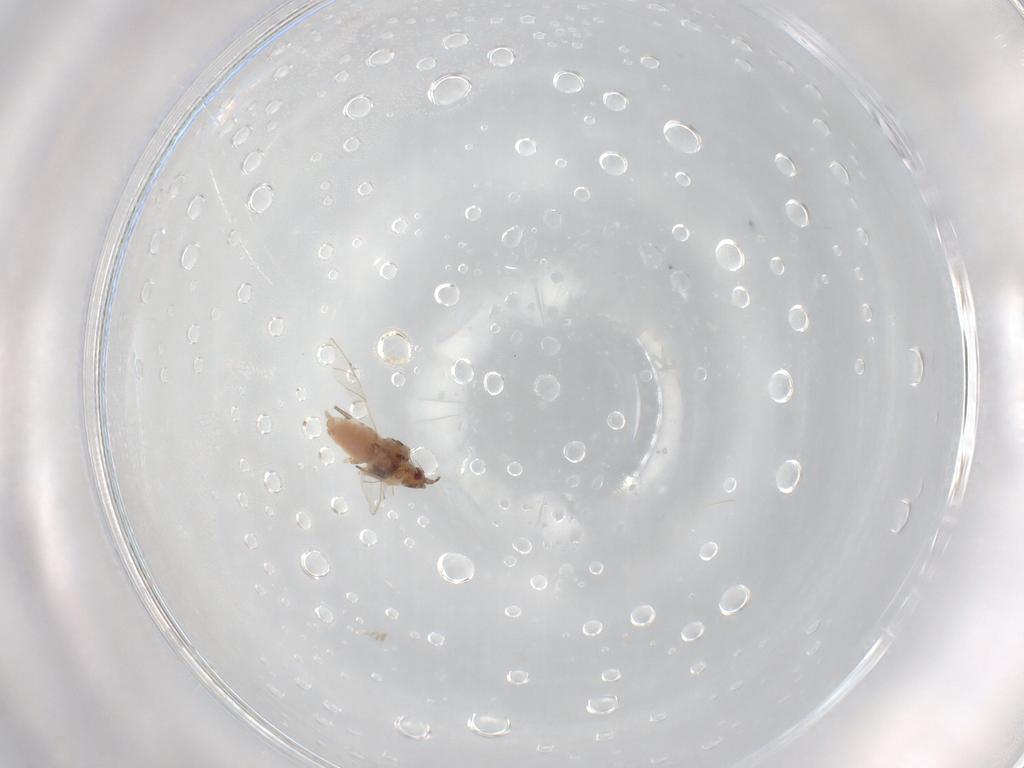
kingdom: Animalia
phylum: Arthropoda
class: Insecta
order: Hemiptera
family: Aphididae
